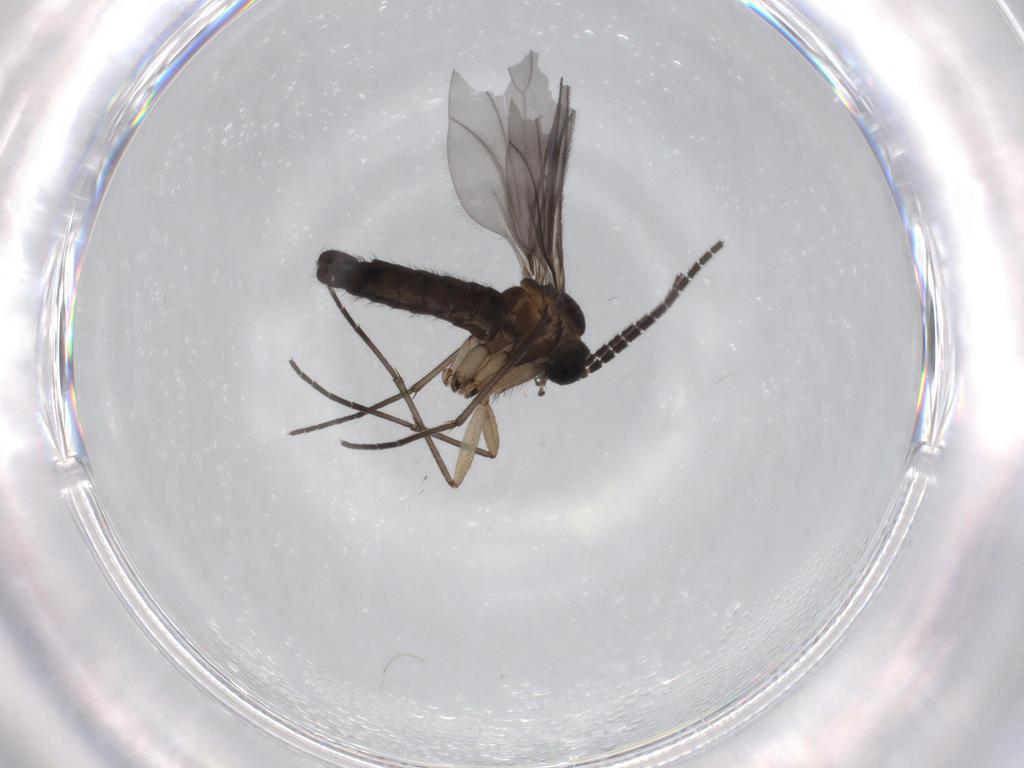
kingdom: Animalia
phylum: Arthropoda
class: Insecta
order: Diptera
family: Sciaridae
